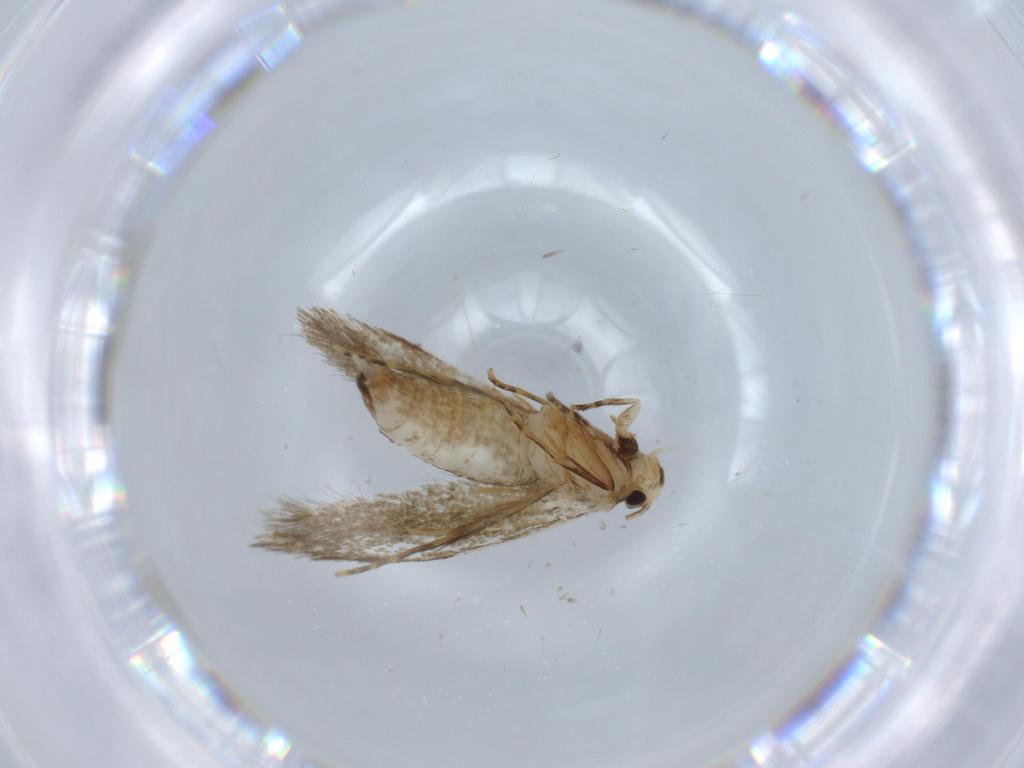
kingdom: Animalia
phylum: Arthropoda
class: Insecta
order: Lepidoptera
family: Tineidae
